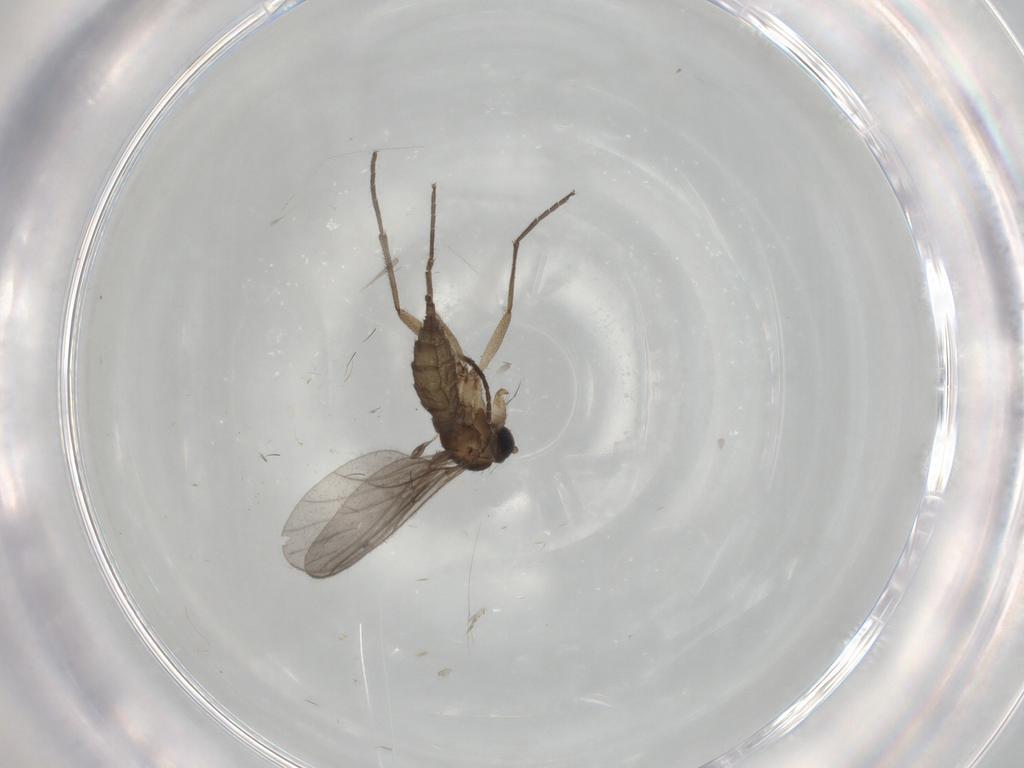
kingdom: Animalia
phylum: Arthropoda
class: Insecta
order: Diptera
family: Sciaridae
